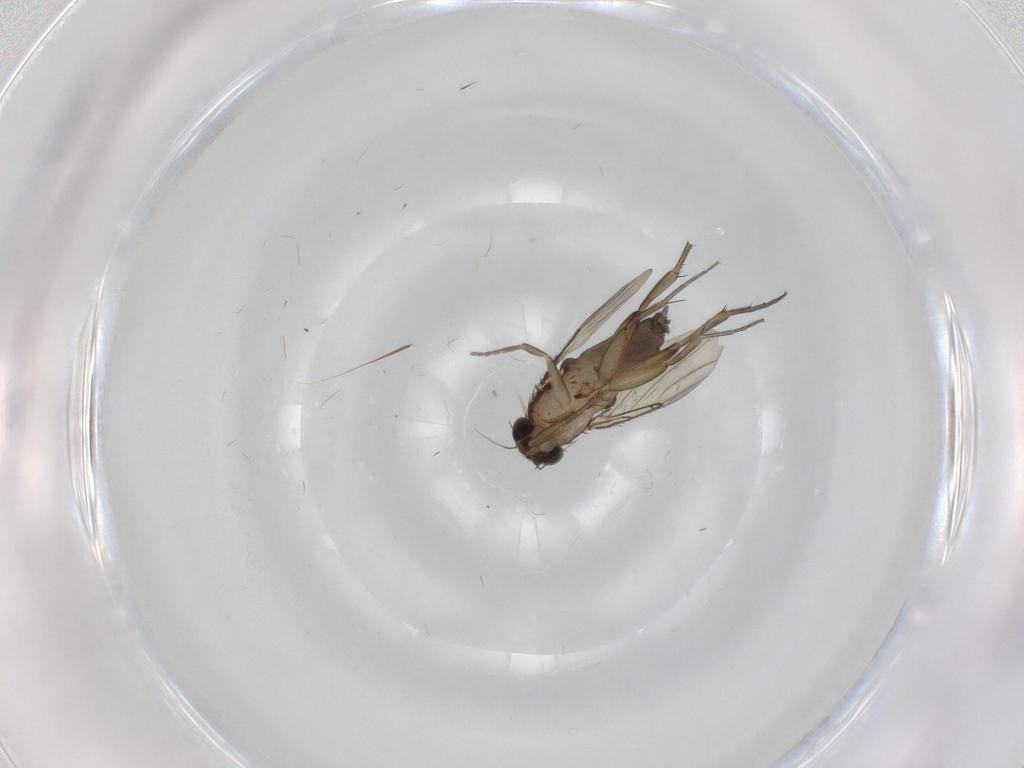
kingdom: Animalia
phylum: Arthropoda
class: Insecta
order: Diptera
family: Phoridae
